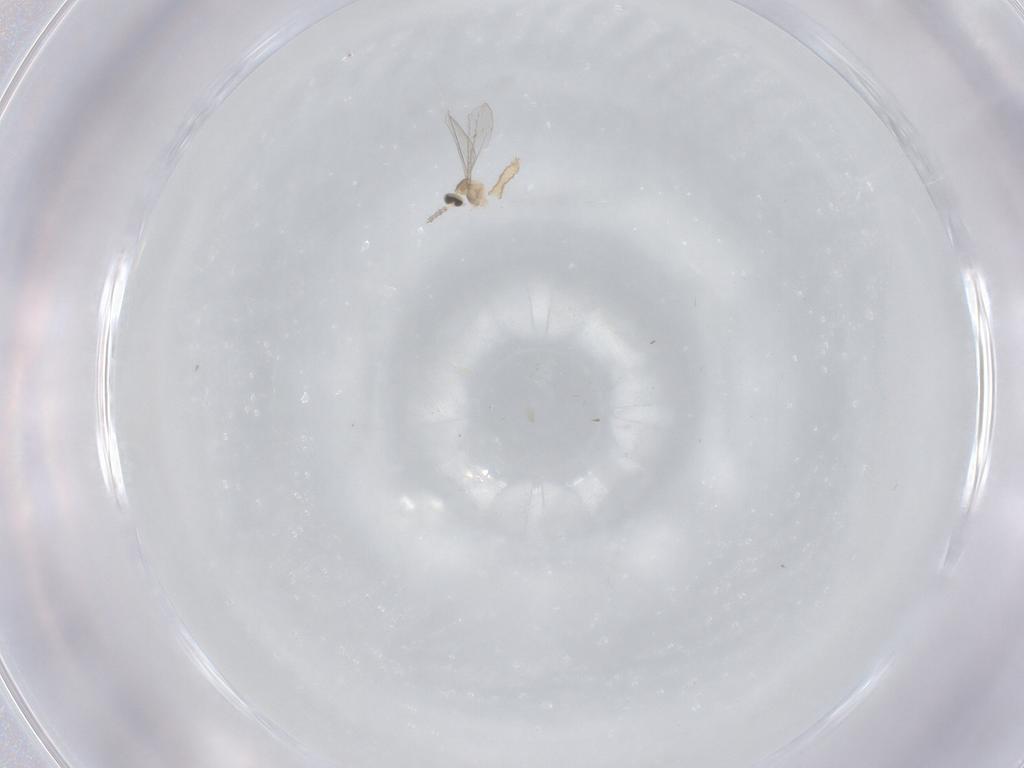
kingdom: Animalia
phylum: Arthropoda
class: Insecta
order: Diptera
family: Cecidomyiidae
